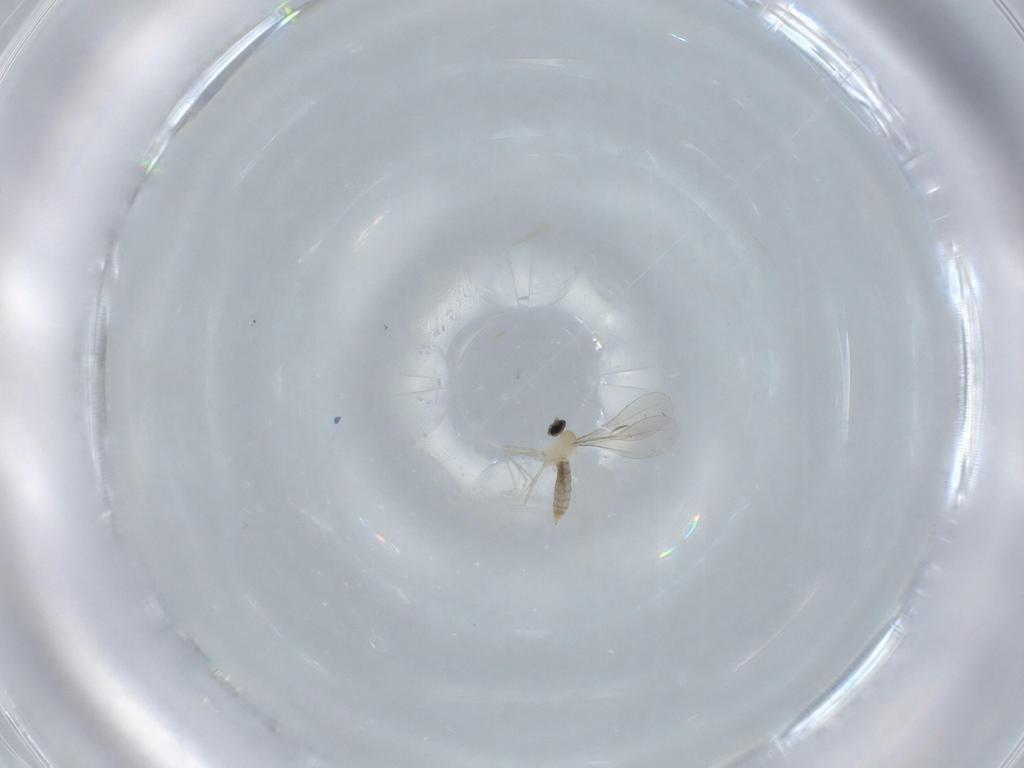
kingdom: Animalia
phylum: Arthropoda
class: Insecta
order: Diptera
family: Cecidomyiidae
